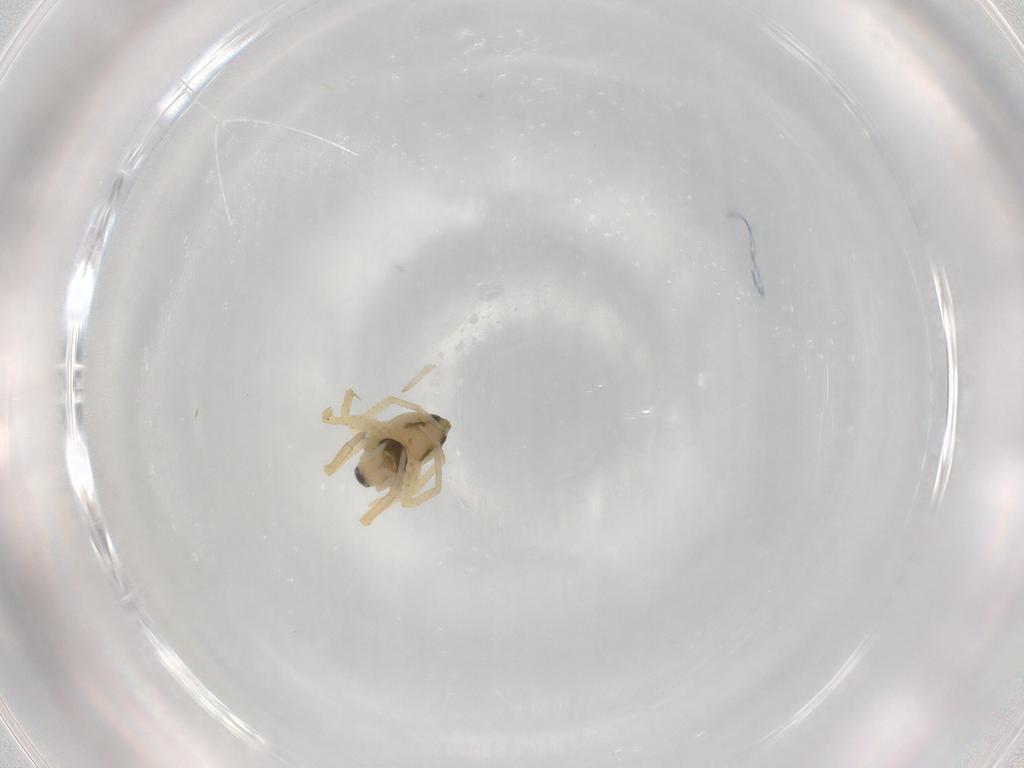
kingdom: Animalia
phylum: Arthropoda
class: Arachnida
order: Araneae
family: Linyphiidae
